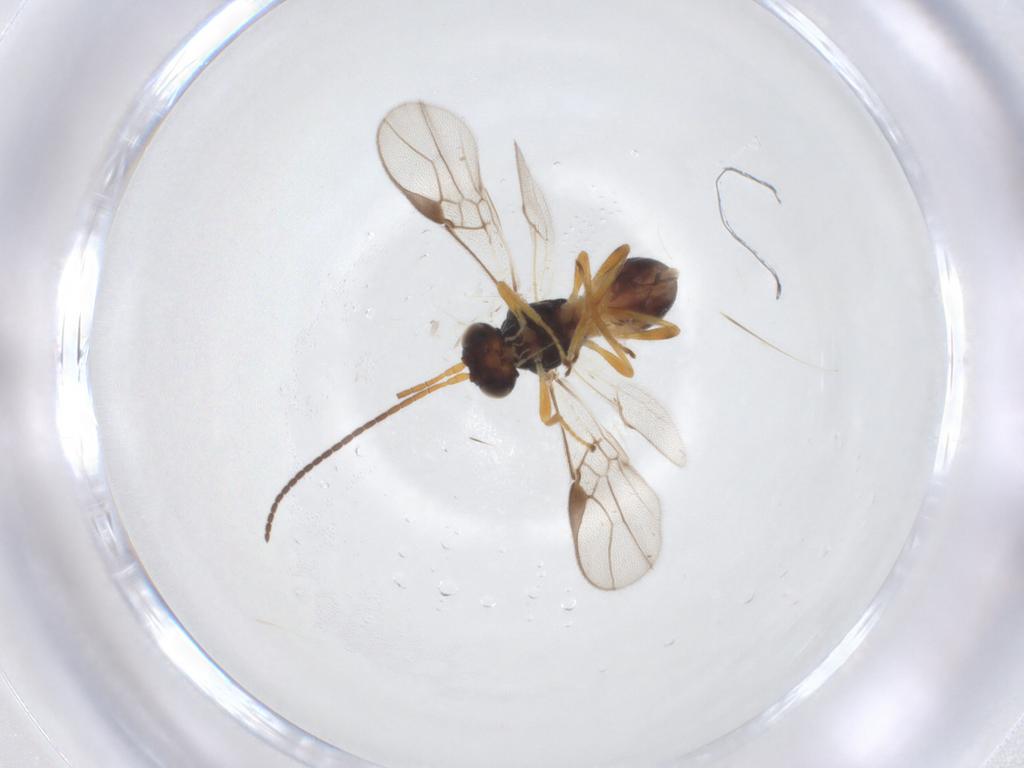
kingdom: Animalia
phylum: Arthropoda
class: Insecta
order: Hymenoptera
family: Braconidae
